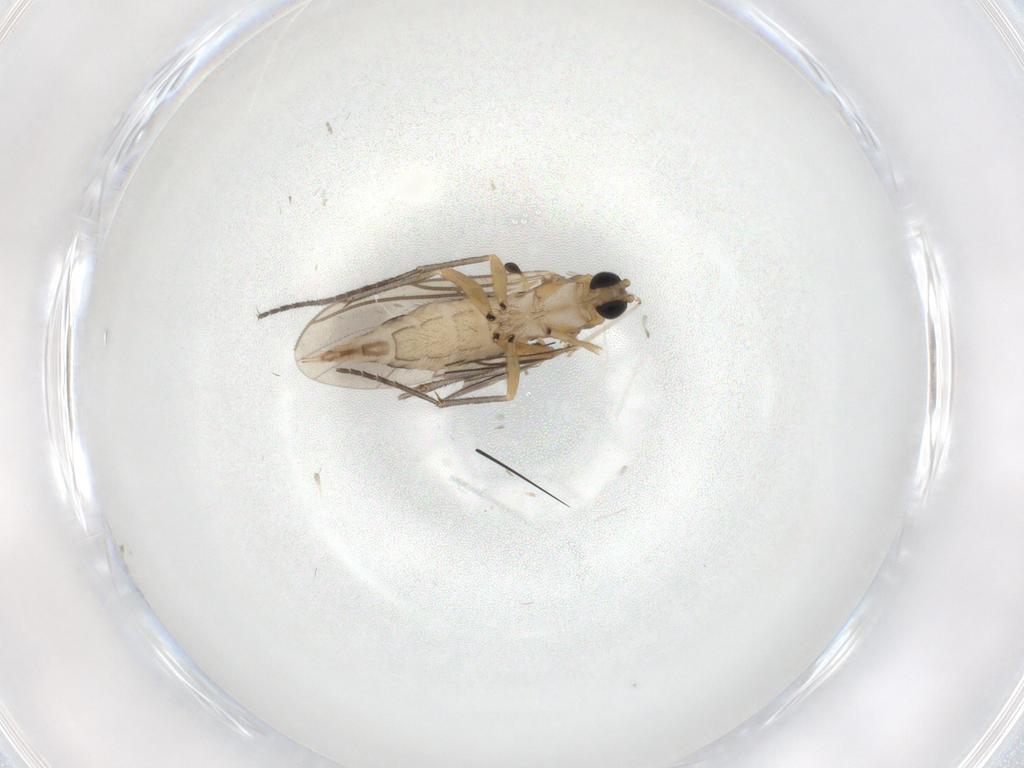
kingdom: Animalia
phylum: Arthropoda
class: Insecta
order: Diptera
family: Sciaridae
